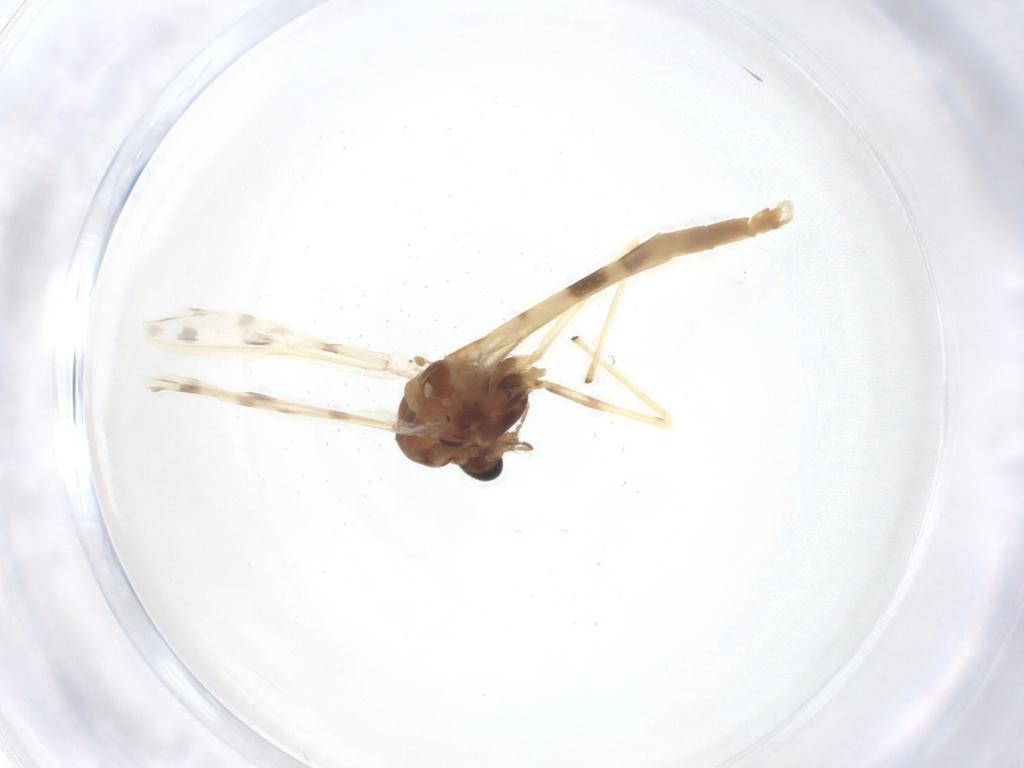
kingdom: Animalia
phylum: Arthropoda
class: Insecta
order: Diptera
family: Chironomidae
